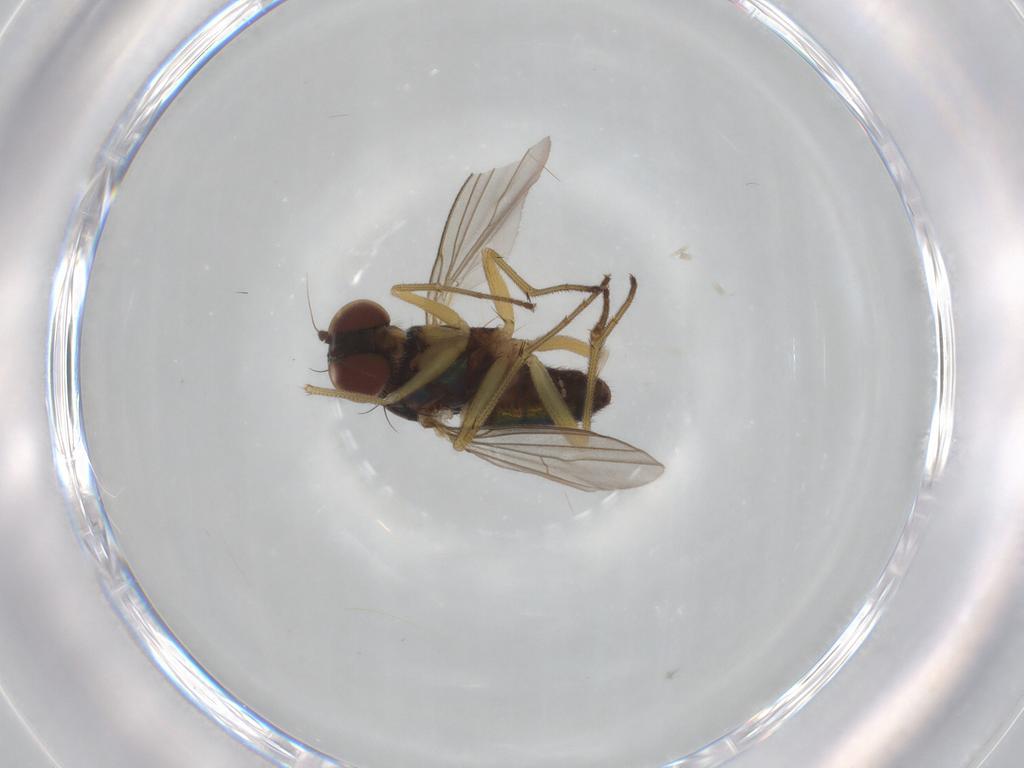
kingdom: Animalia
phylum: Arthropoda
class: Insecta
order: Diptera
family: Dolichopodidae
